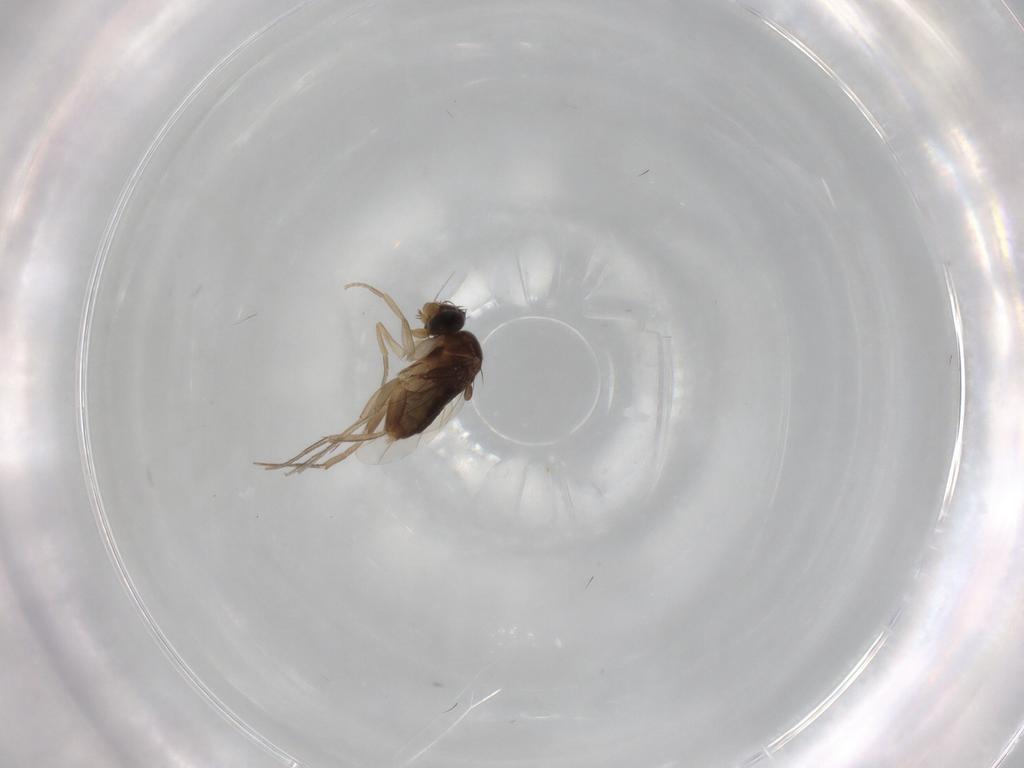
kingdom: Animalia
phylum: Arthropoda
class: Insecta
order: Diptera
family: Phoridae
